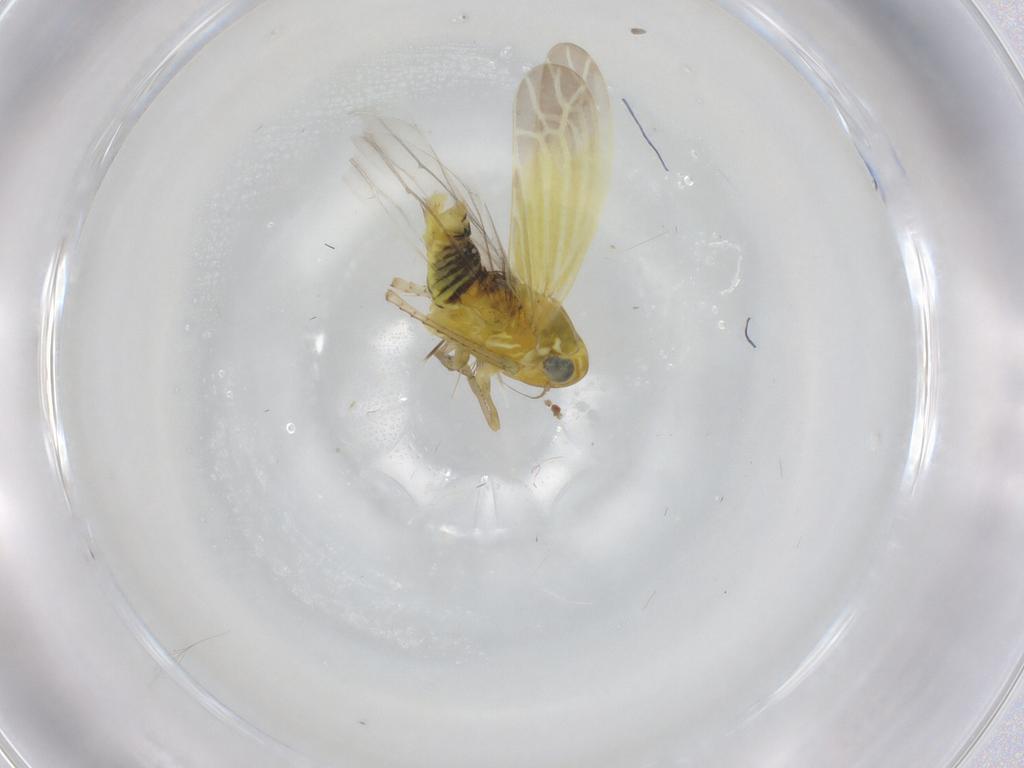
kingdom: Animalia
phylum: Arthropoda
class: Insecta
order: Hemiptera
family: Cicadellidae
